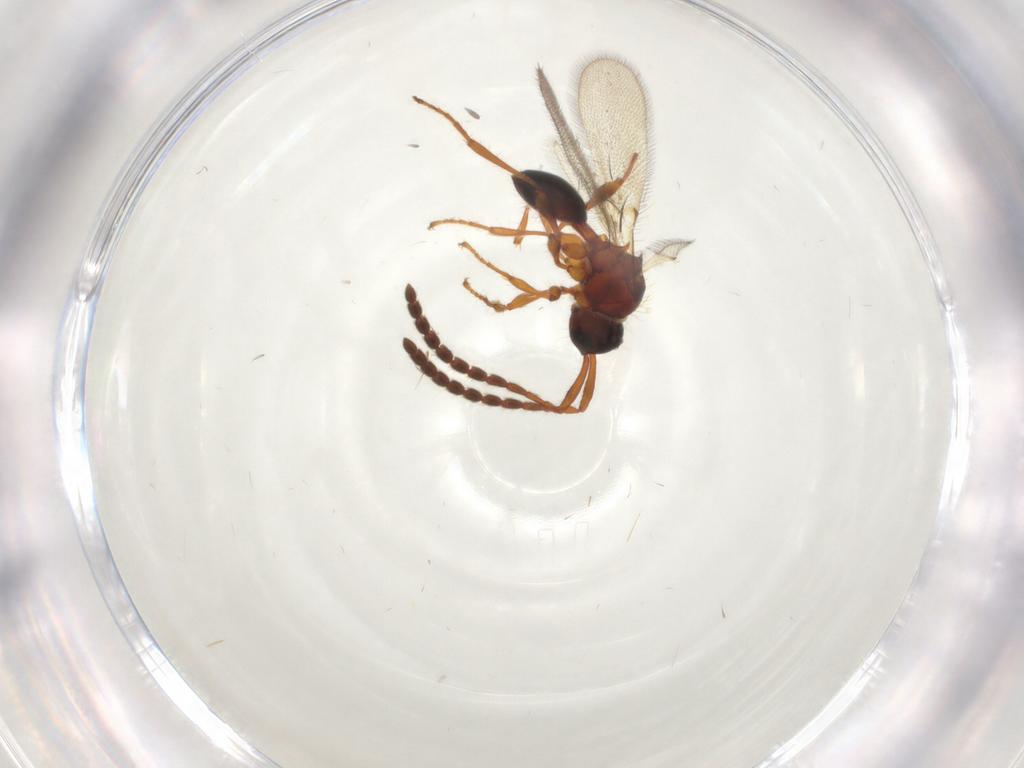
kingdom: Animalia
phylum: Arthropoda
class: Insecta
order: Hymenoptera
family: Diapriidae
